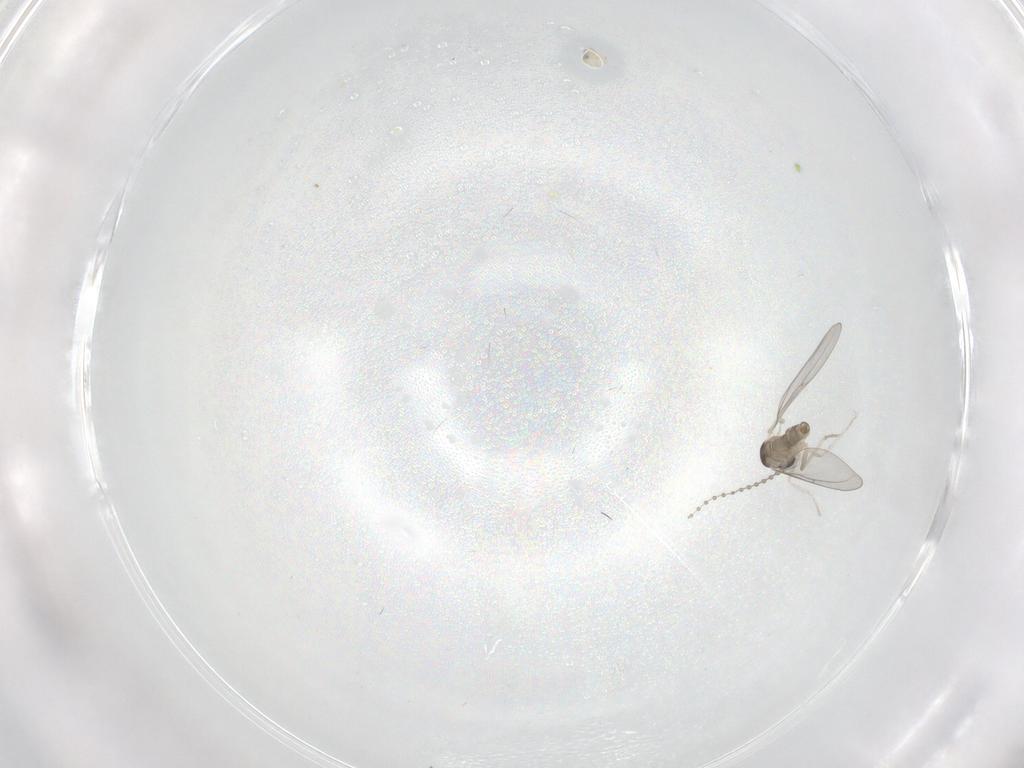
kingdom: Animalia
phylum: Arthropoda
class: Insecta
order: Diptera
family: Cecidomyiidae
